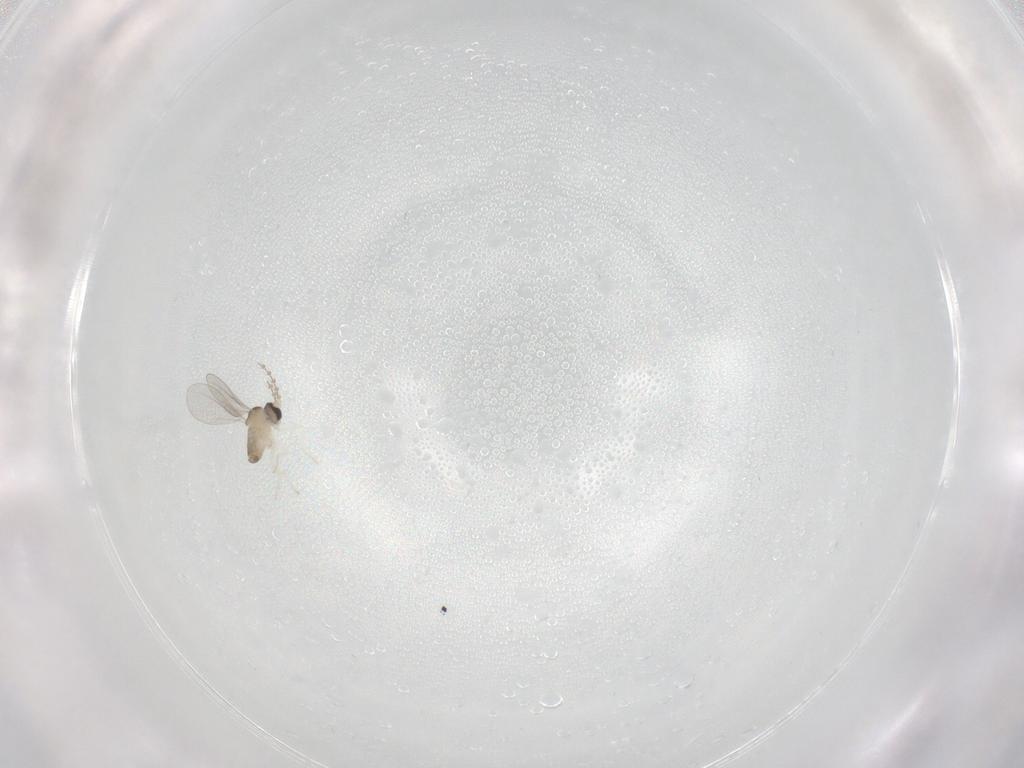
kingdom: Animalia
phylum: Arthropoda
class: Insecta
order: Diptera
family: Cecidomyiidae
